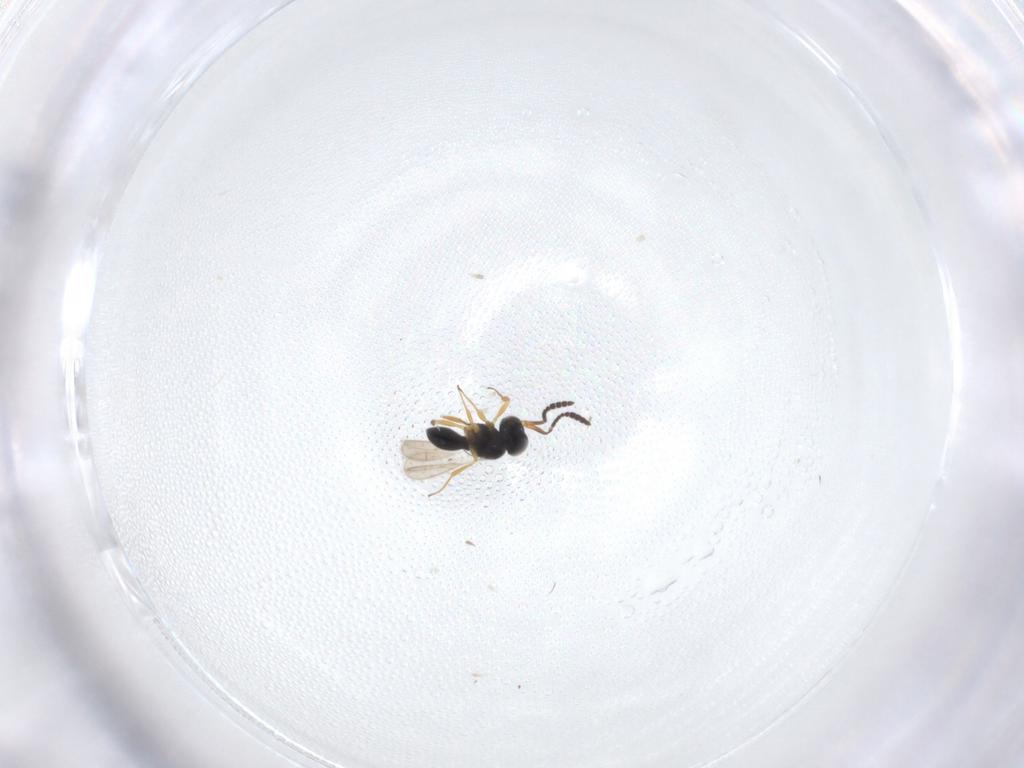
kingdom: Animalia
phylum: Arthropoda
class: Insecta
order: Hymenoptera
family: Scelionidae
